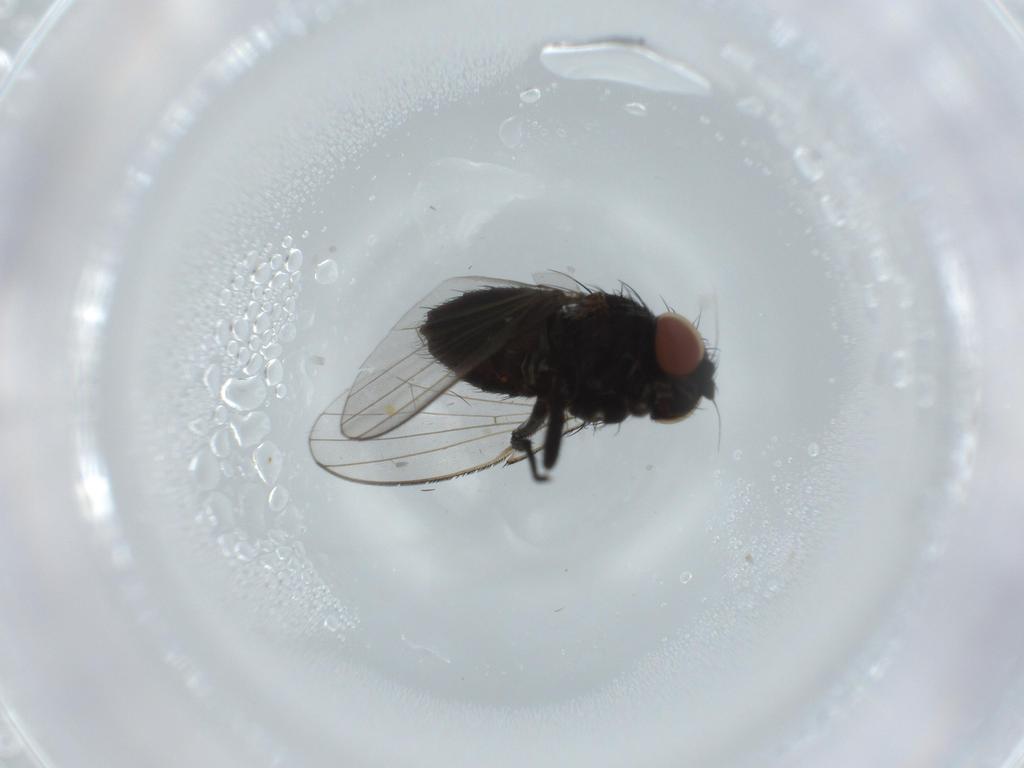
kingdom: Animalia
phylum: Arthropoda
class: Insecta
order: Diptera
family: Milichiidae
